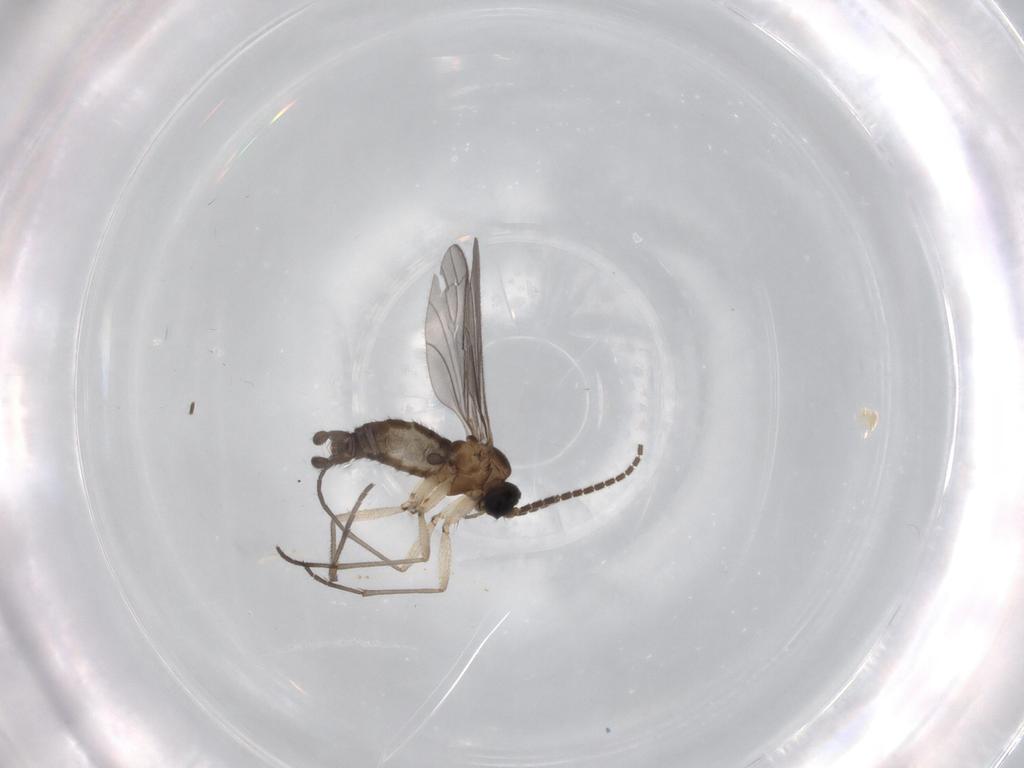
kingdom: Animalia
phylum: Arthropoda
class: Insecta
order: Diptera
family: Sciaridae
